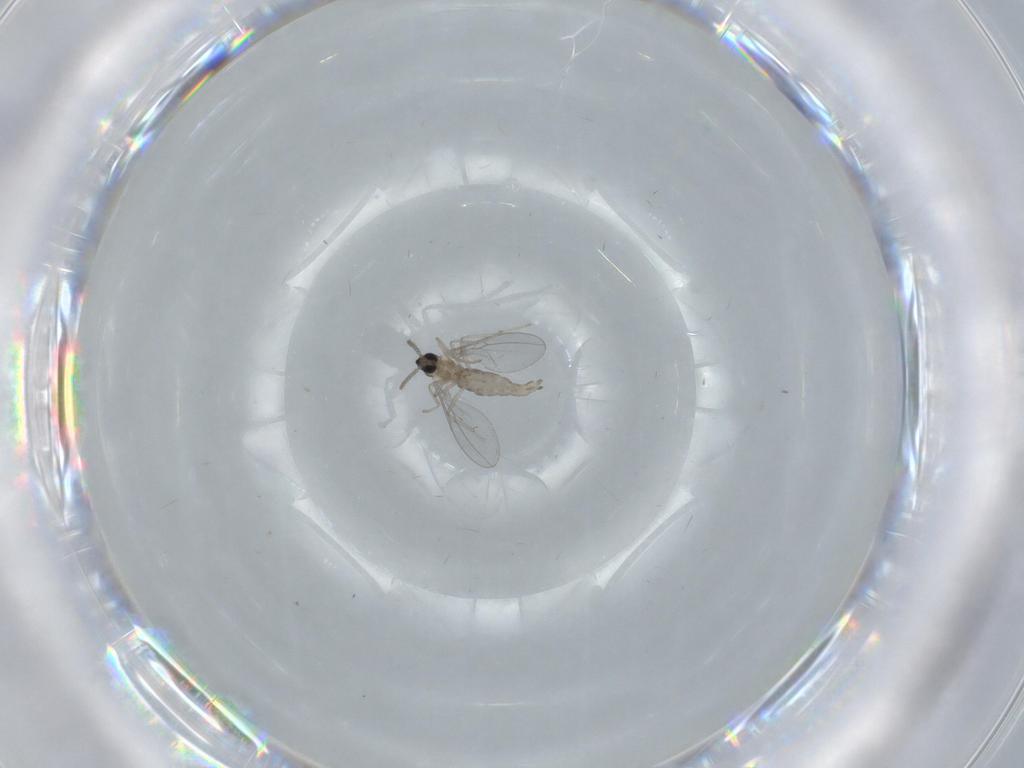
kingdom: Animalia
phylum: Arthropoda
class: Insecta
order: Diptera
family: Cecidomyiidae
